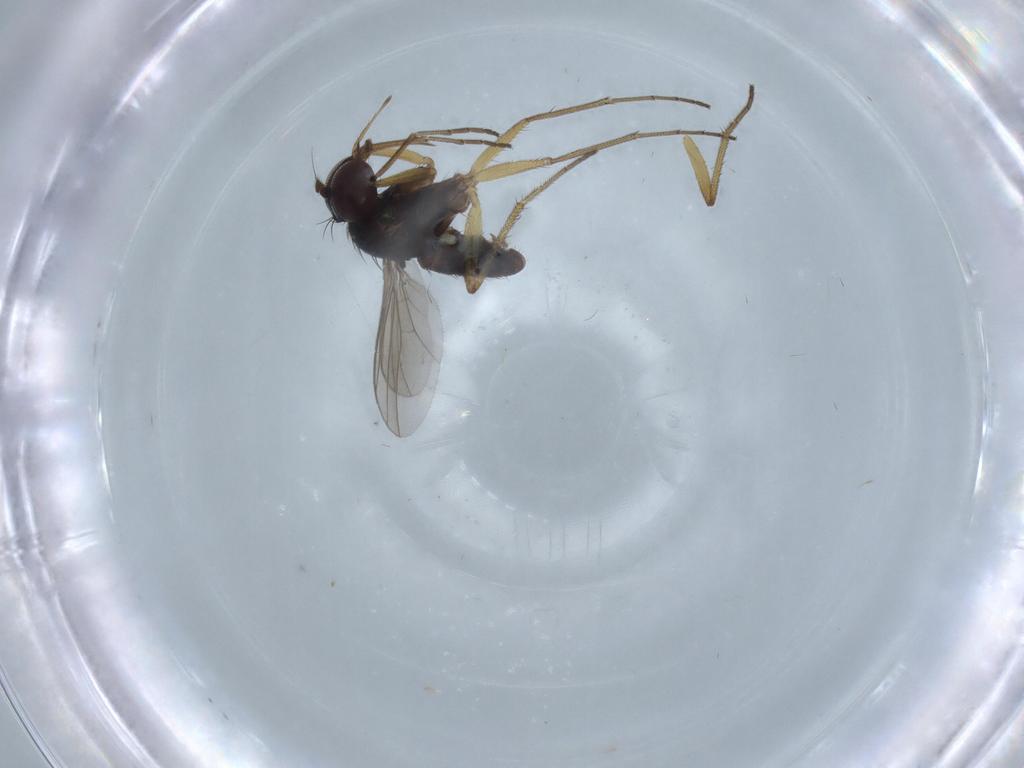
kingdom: Animalia
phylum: Arthropoda
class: Insecta
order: Diptera
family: Phoridae
